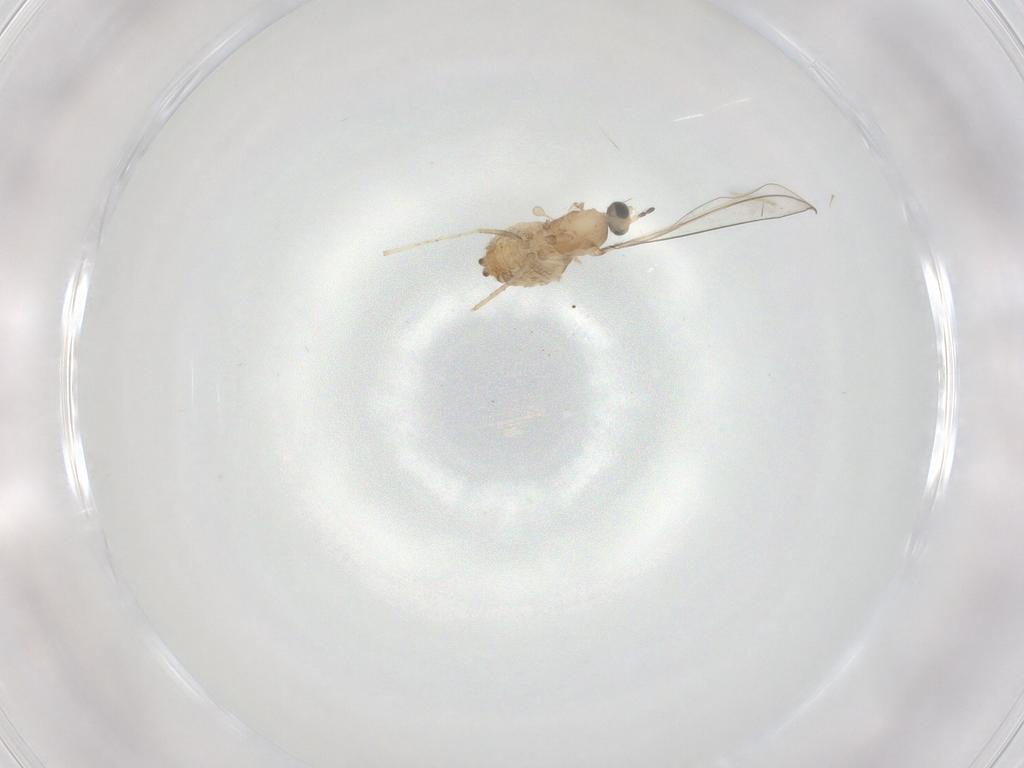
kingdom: Animalia
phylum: Arthropoda
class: Insecta
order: Diptera
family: Cecidomyiidae
